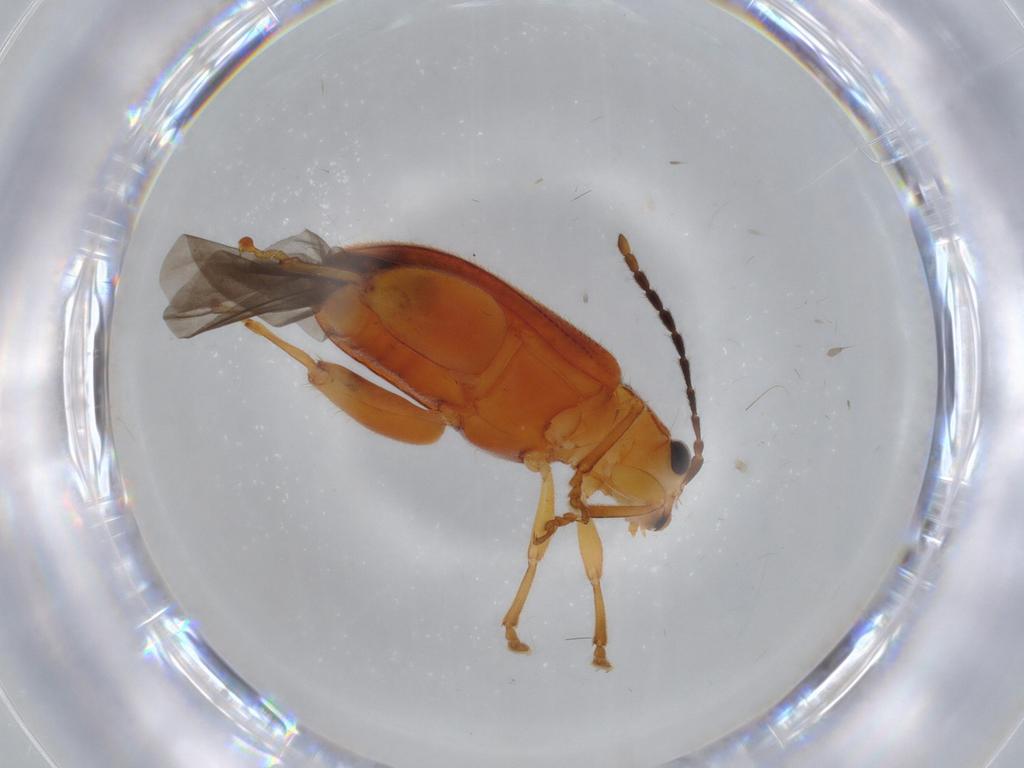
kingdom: Animalia
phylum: Arthropoda
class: Insecta
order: Coleoptera
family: Chrysomelidae
